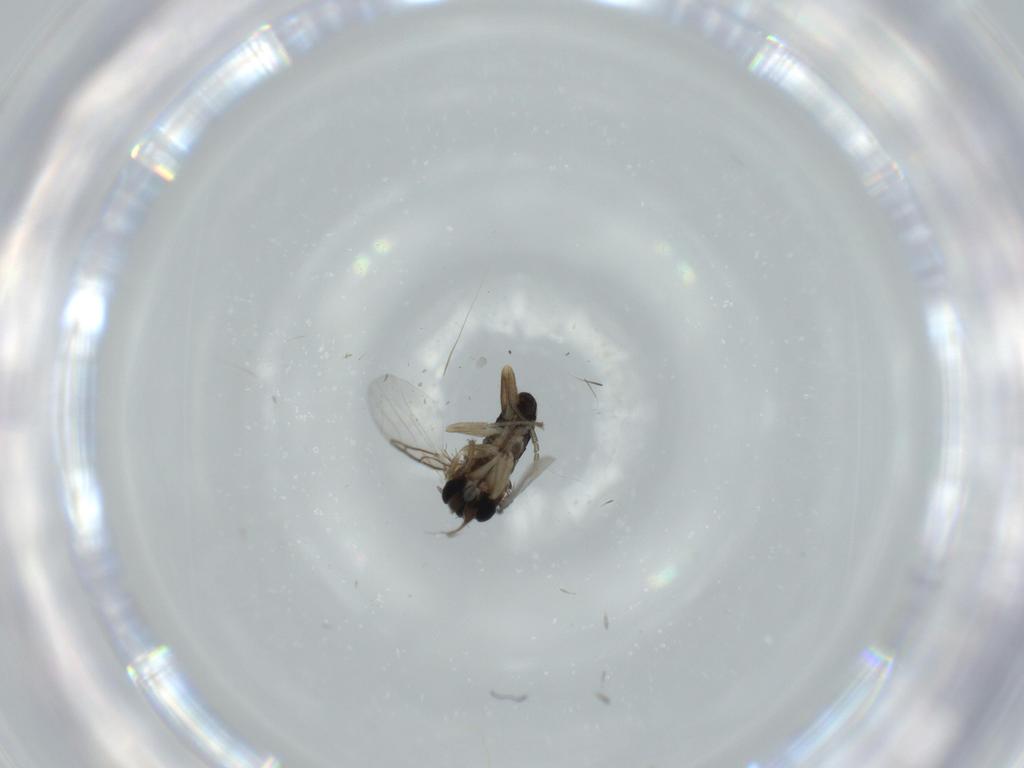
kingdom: Animalia
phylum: Arthropoda
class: Insecta
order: Diptera
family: Phoridae
